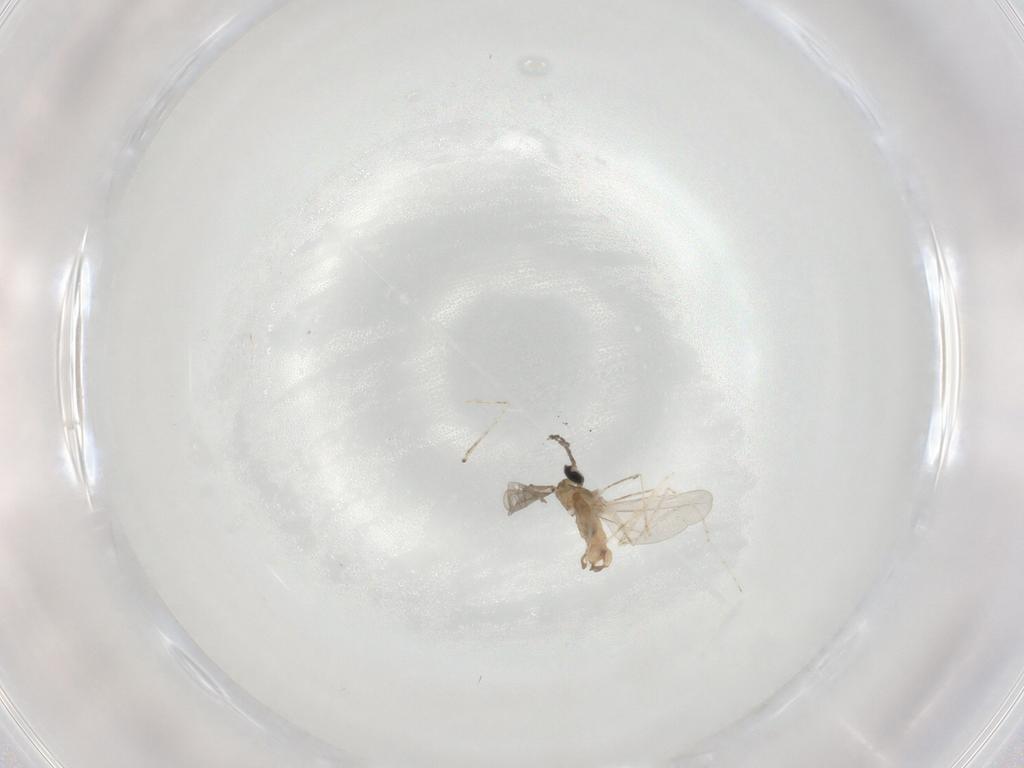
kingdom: Animalia
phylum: Arthropoda
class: Insecta
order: Diptera
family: Cecidomyiidae
